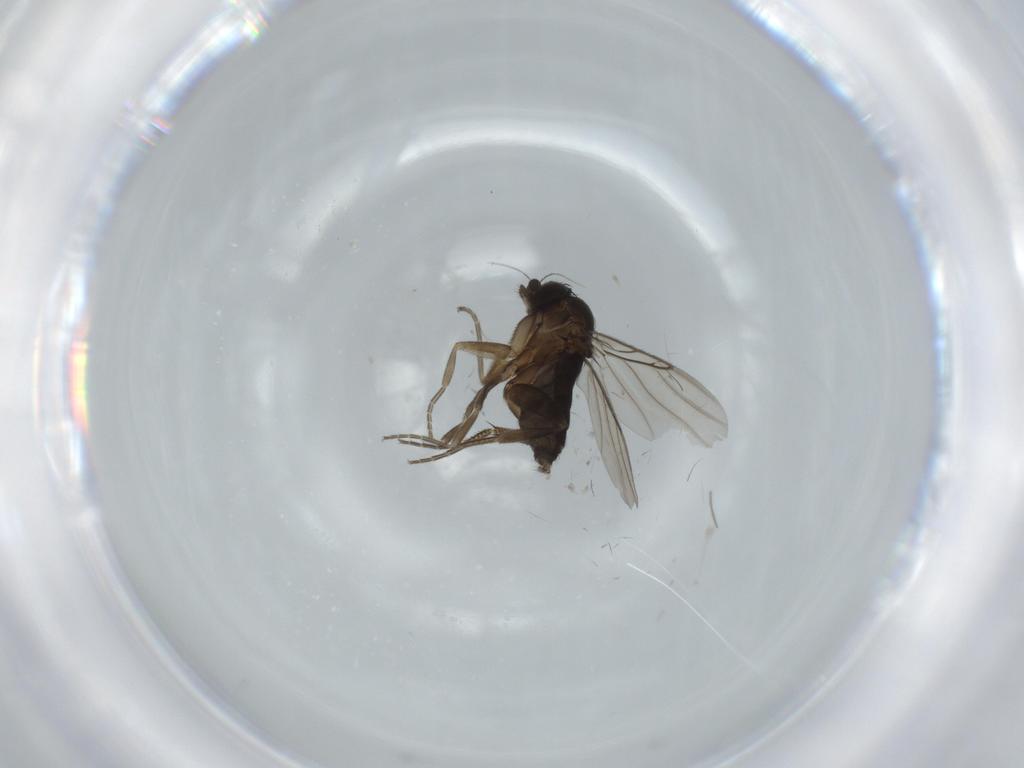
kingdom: Animalia
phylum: Arthropoda
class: Insecta
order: Diptera
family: Phoridae
